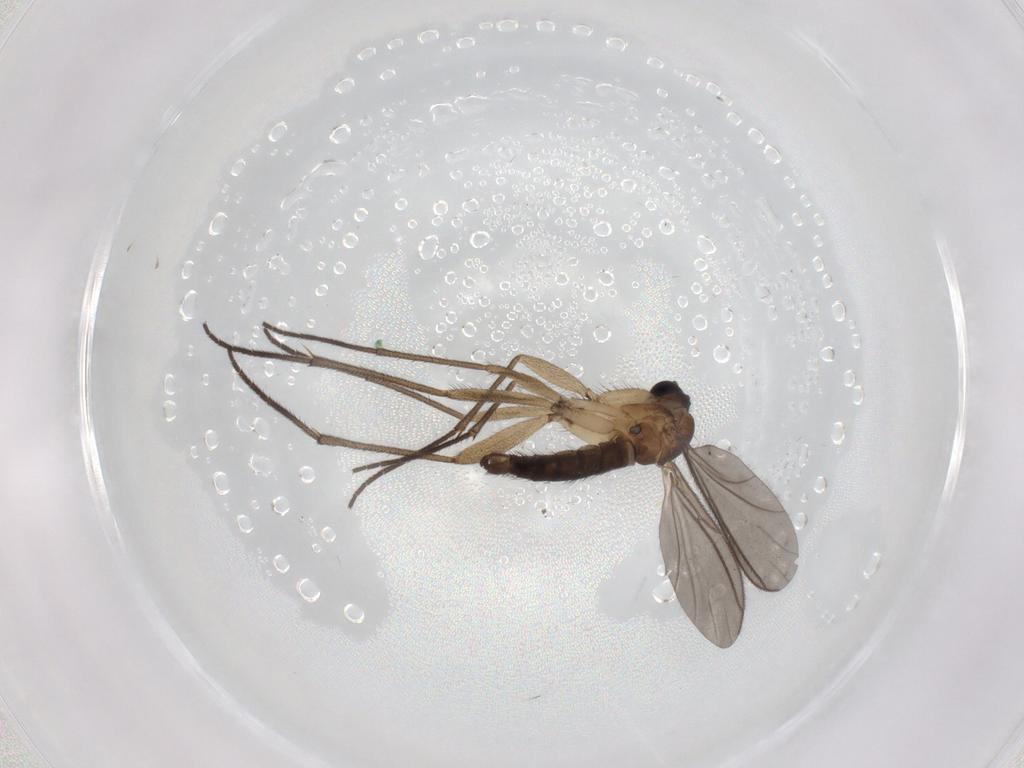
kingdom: Animalia
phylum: Arthropoda
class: Insecta
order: Diptera
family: Sciaridae
